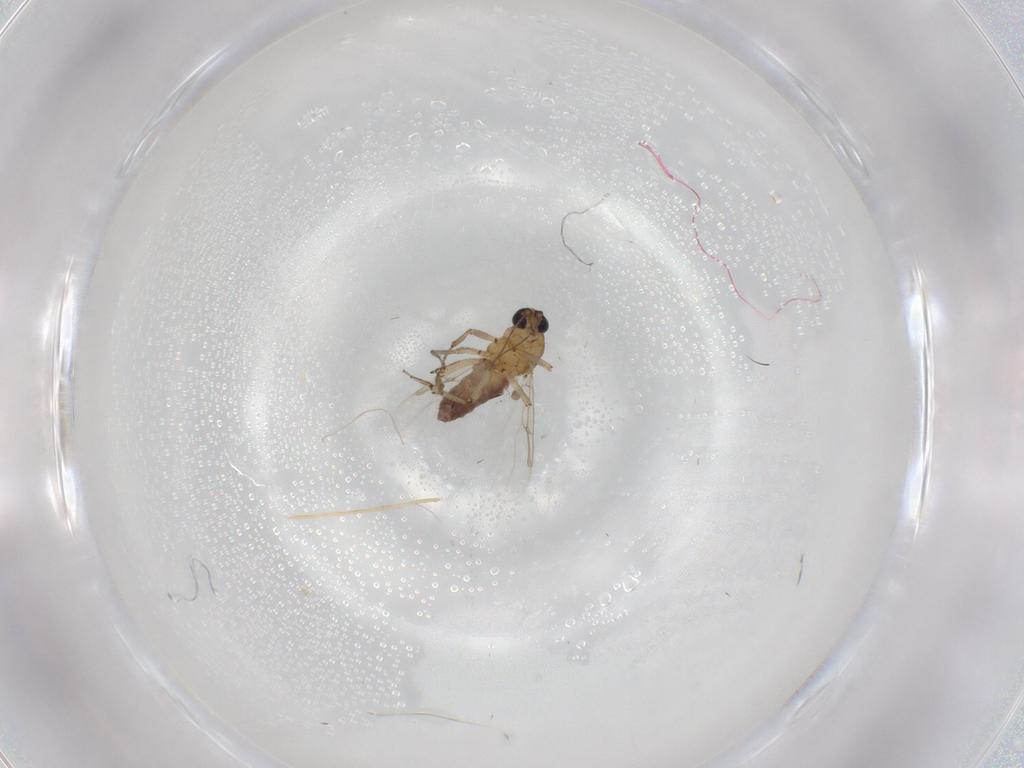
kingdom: Animalia
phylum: Arthropoda
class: Insecta
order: Diptera
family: Ceratopogonidae
